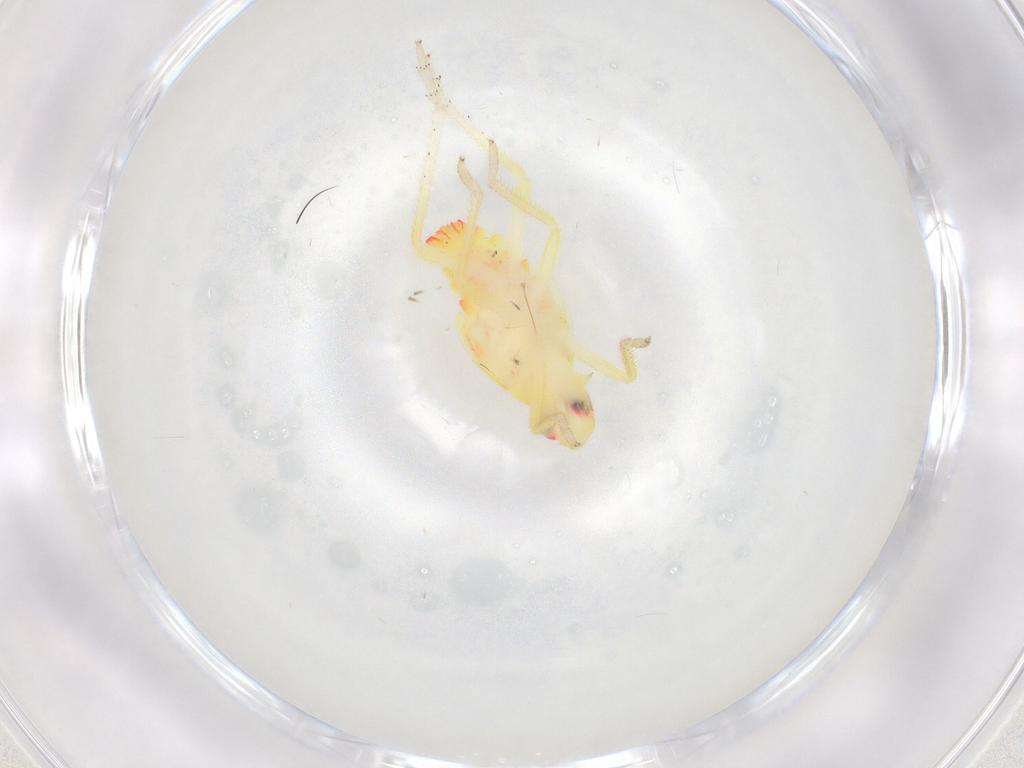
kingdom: Animalia
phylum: Arthropoda
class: Insecta
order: Hemiptera
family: Tropiduchidae
